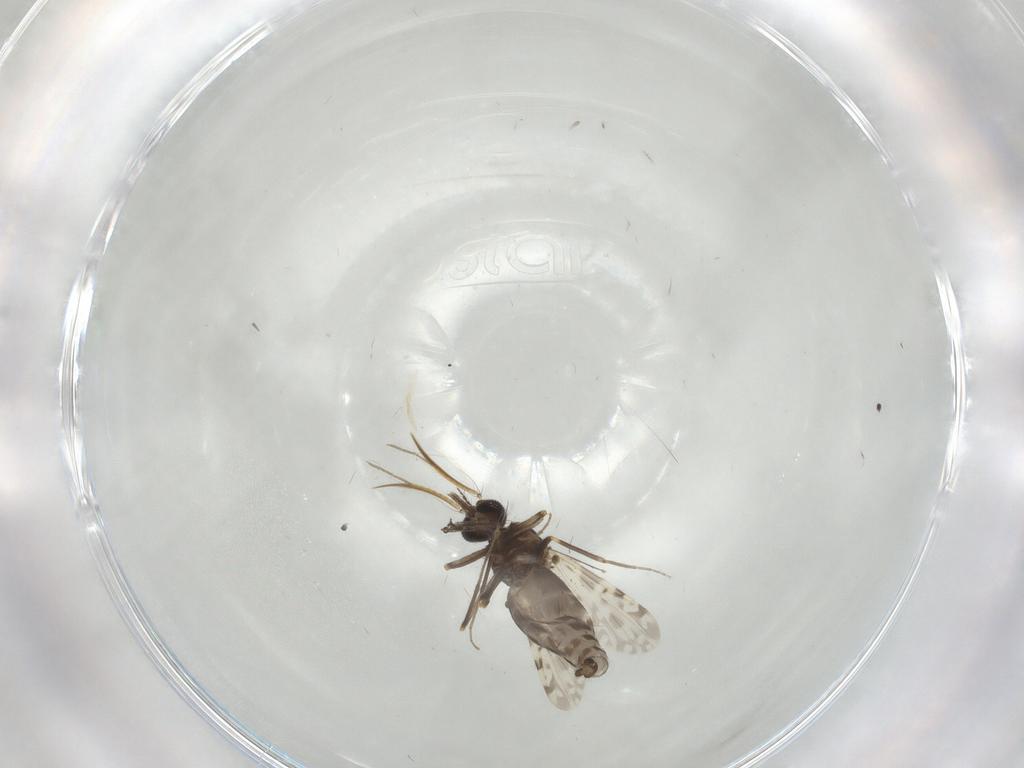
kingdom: Animalia
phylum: Arthropoda
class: Insecta
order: Diptera
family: Ceratopogonidae
